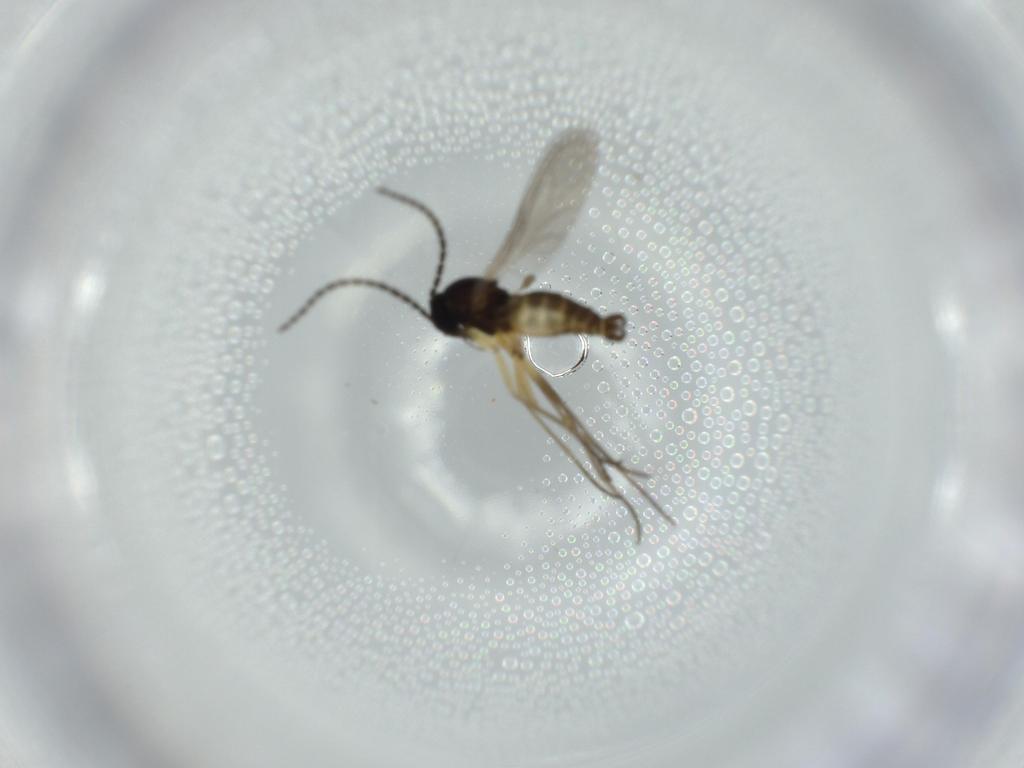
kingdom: Animalia
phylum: Arthropoda
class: Insecta
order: Diptera
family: Sciaridae
